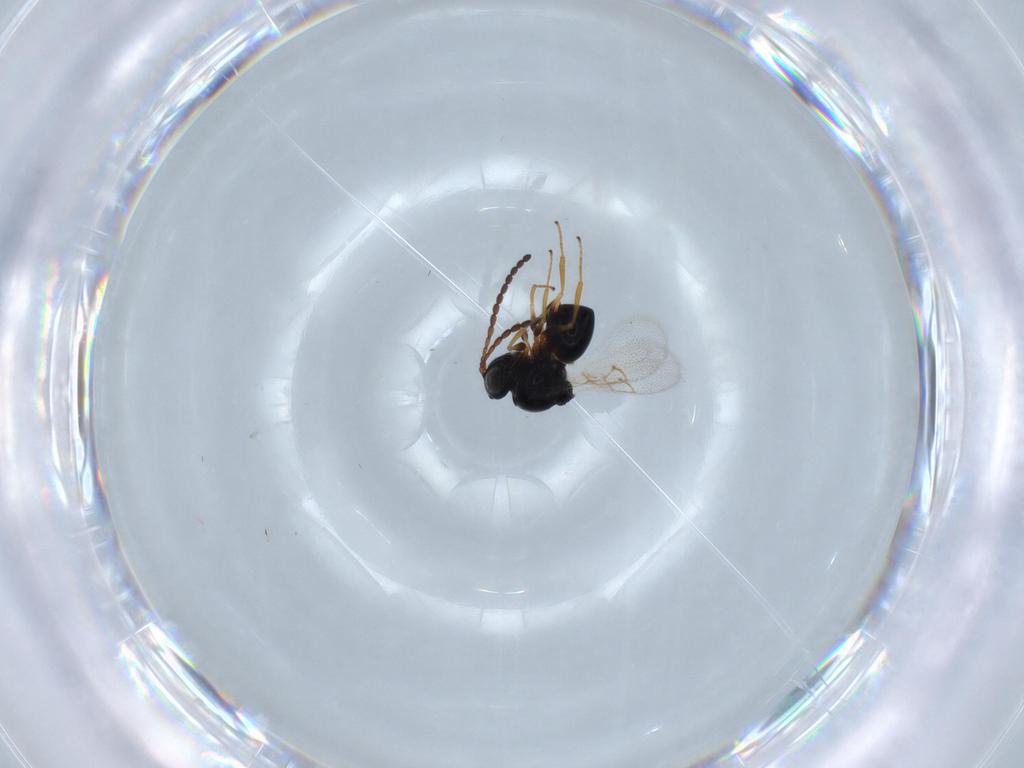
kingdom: Animalia
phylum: Arthropoda
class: Insecta
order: Hymenoptera
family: Figitidae
